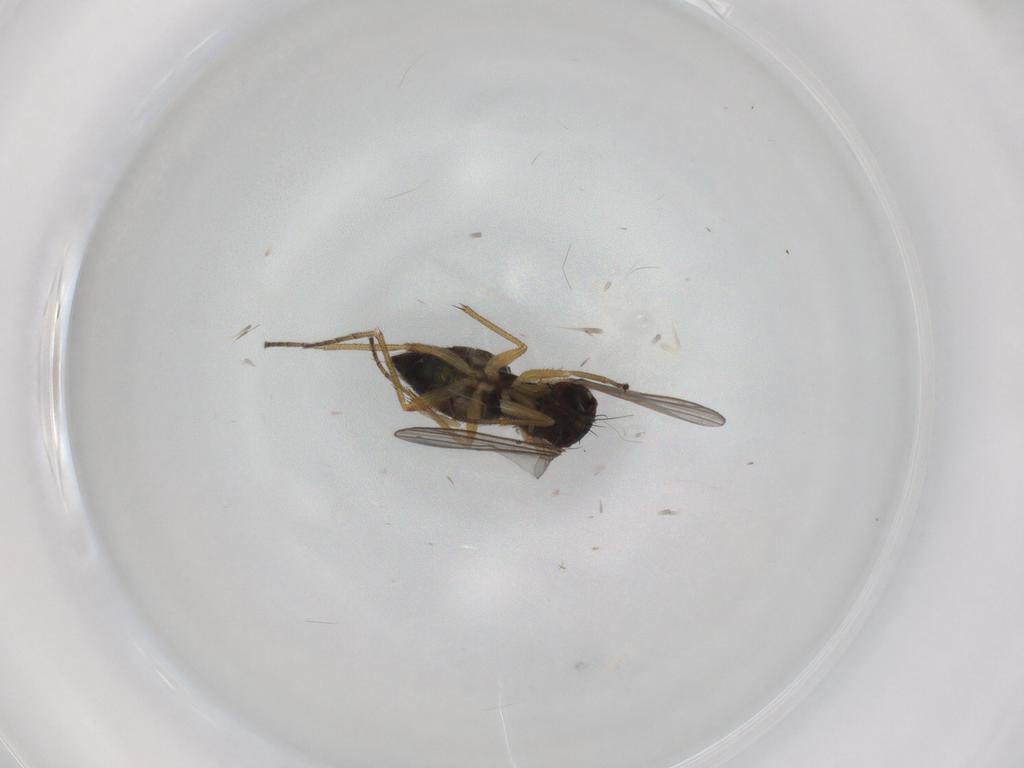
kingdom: Animalia
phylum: Arthropoda
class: Insecta
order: Diptera
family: Ceratopogonidae
